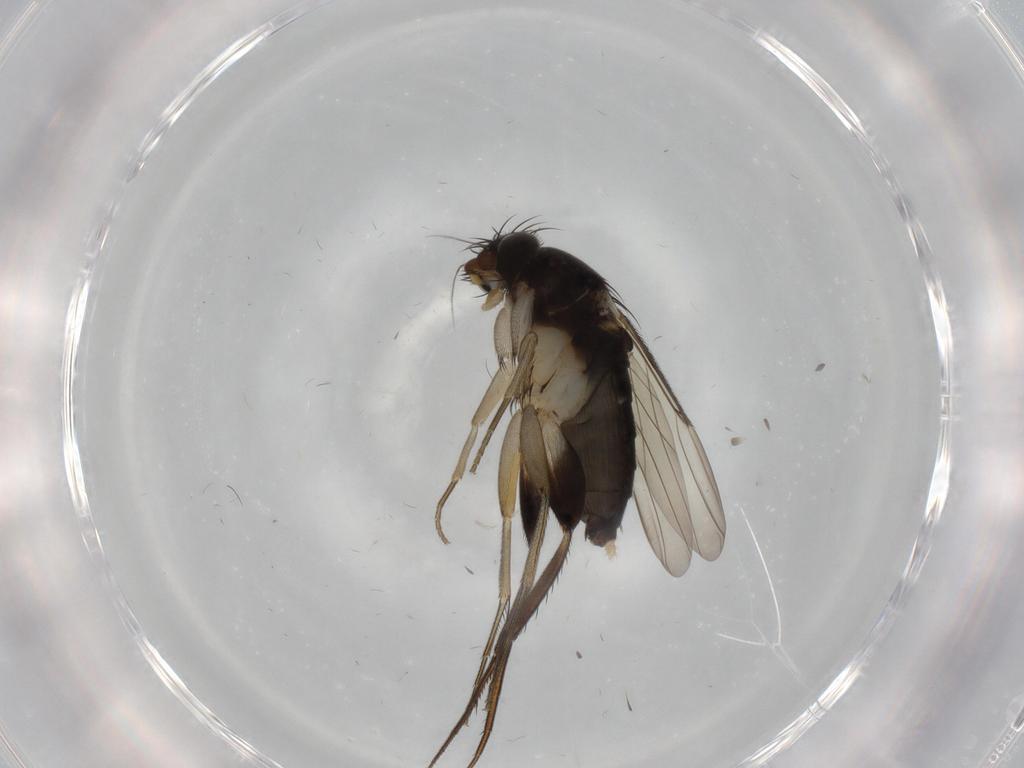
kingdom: Animalia
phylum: Arthropoda
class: Insecta
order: Diptera
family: Phoridae
